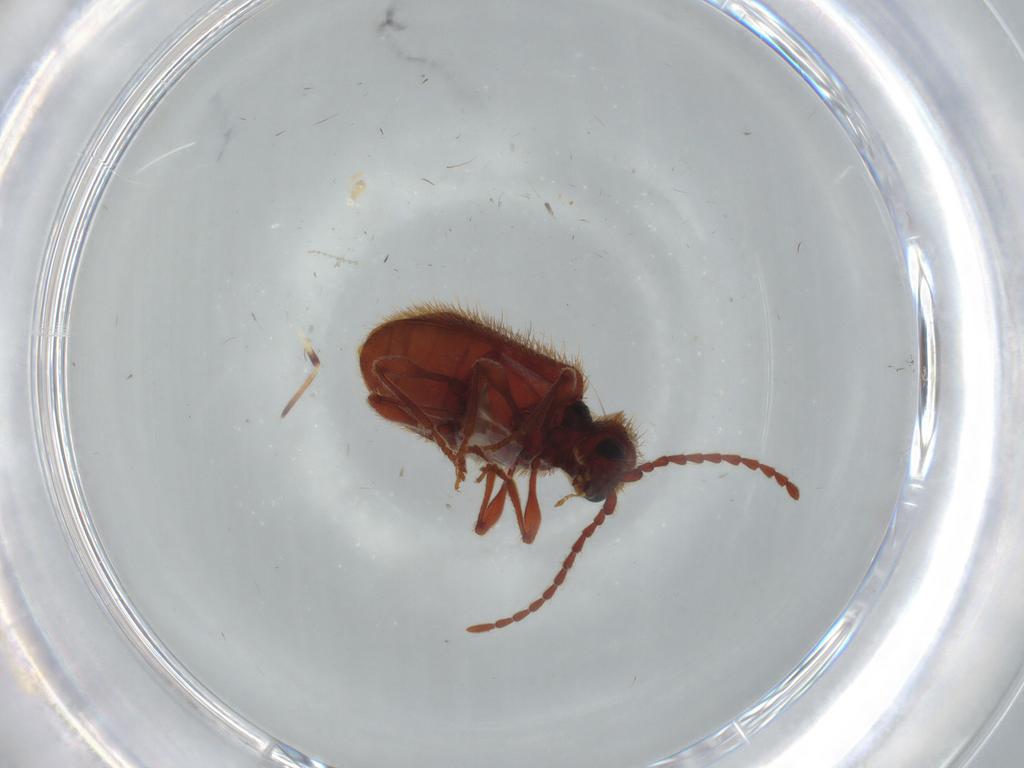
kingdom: Animalia
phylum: Arthropoda
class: Insecta
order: Coleoptera
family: Ptinidae
